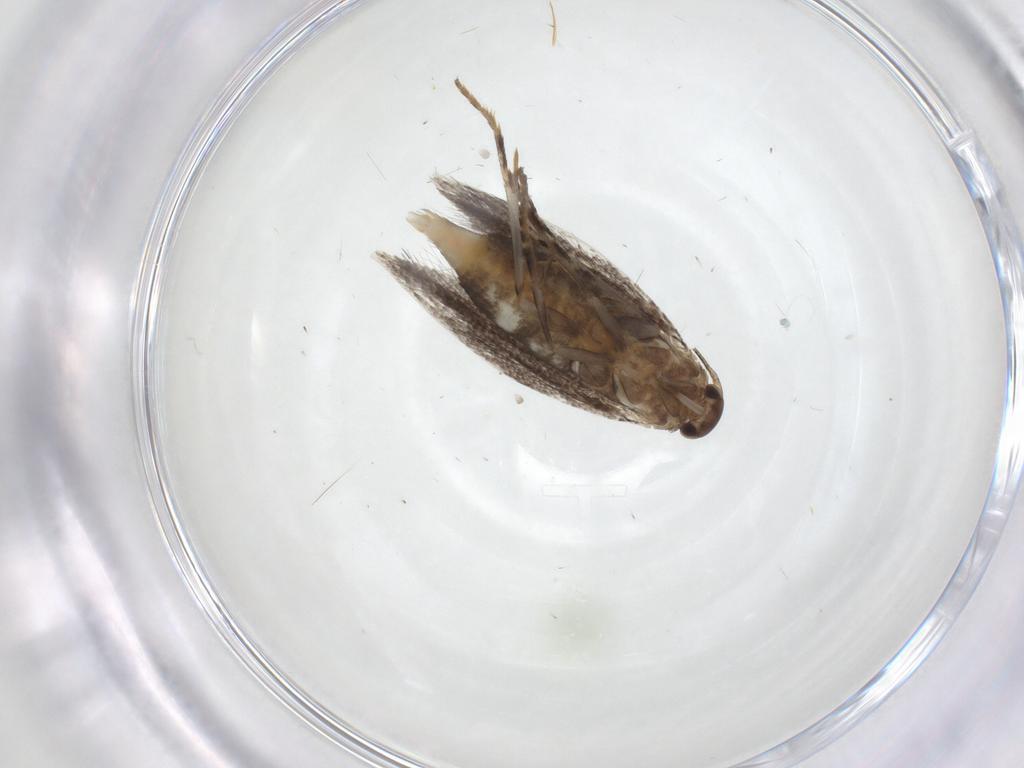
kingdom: Animalia
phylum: Arthropoda
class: Insecta
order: Lepidoptera
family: Elachistidae
